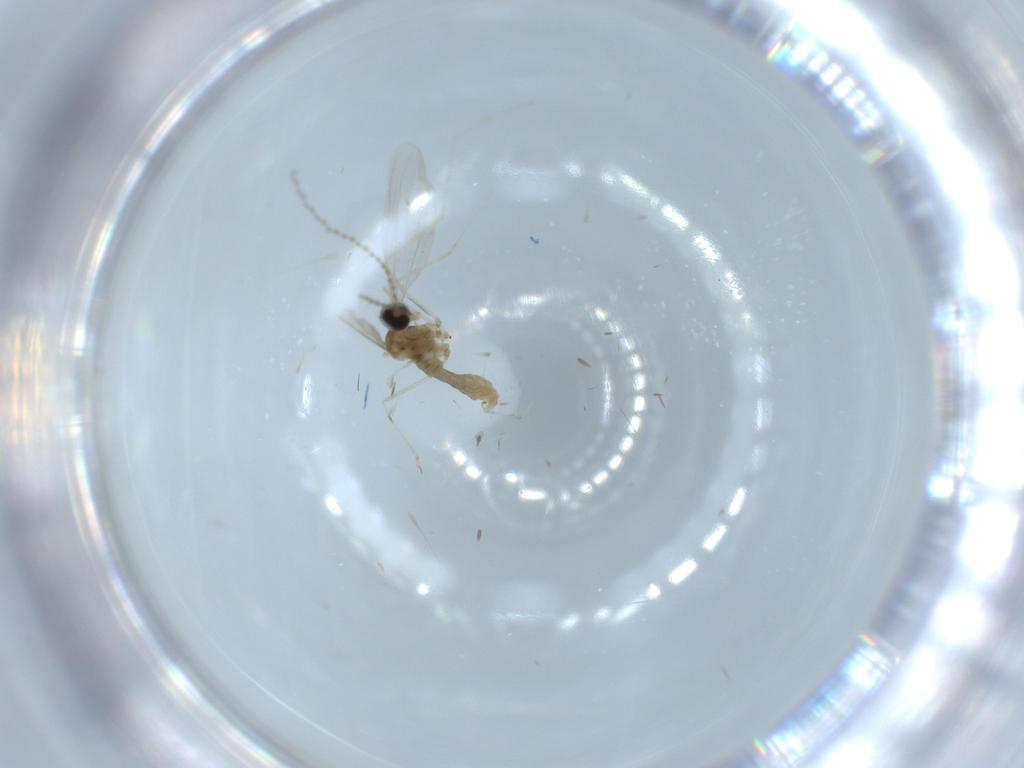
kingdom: Animalia
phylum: Arthropoda
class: Insecta
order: Diptera
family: Cecidomyiidae
